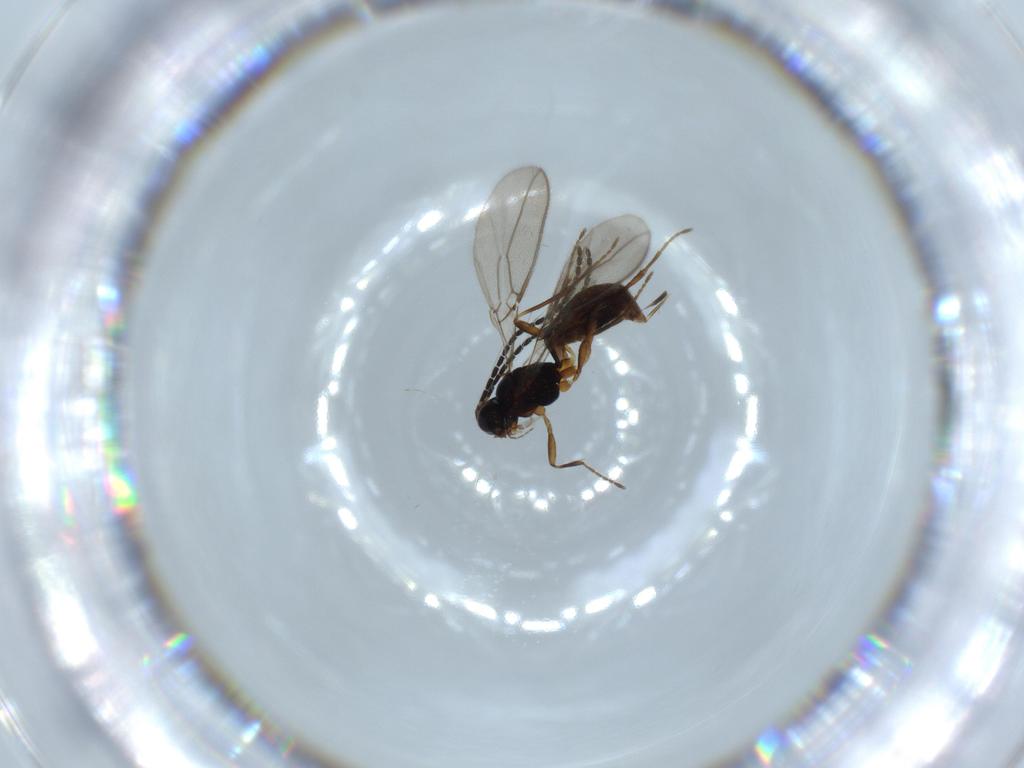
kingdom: Animalia
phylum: Arthropoda
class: Insecta
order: Hymenoptera
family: Braconidae
